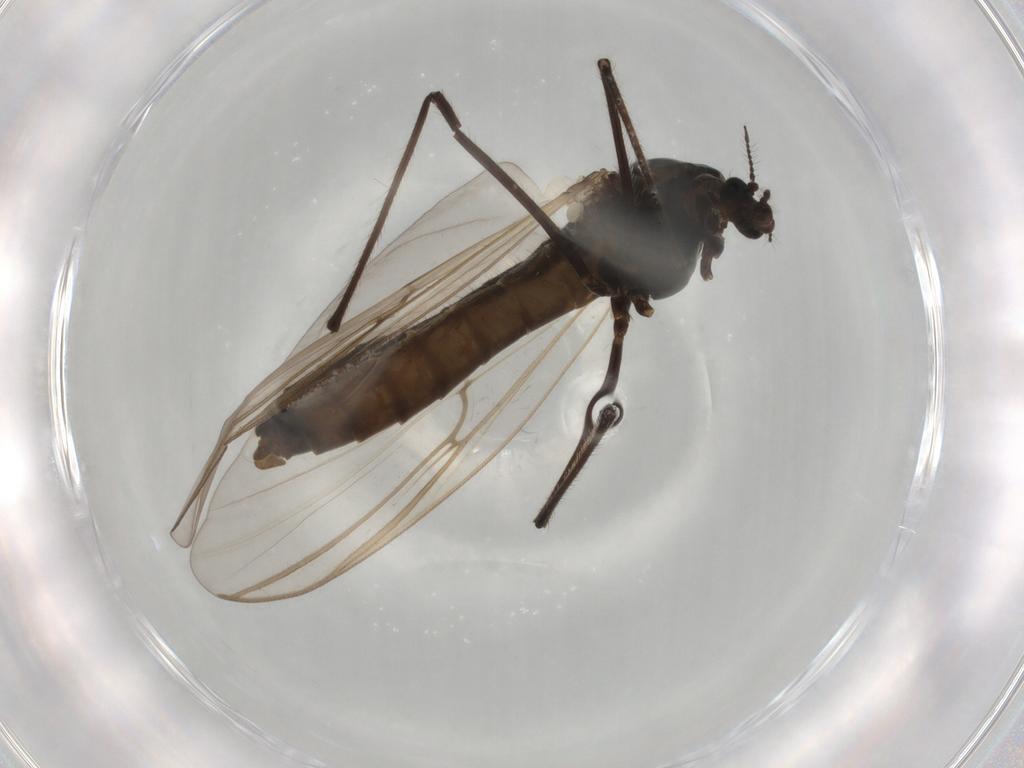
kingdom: Animalia
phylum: Arthropoda
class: Insecta
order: Diptera
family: Chironomidae
